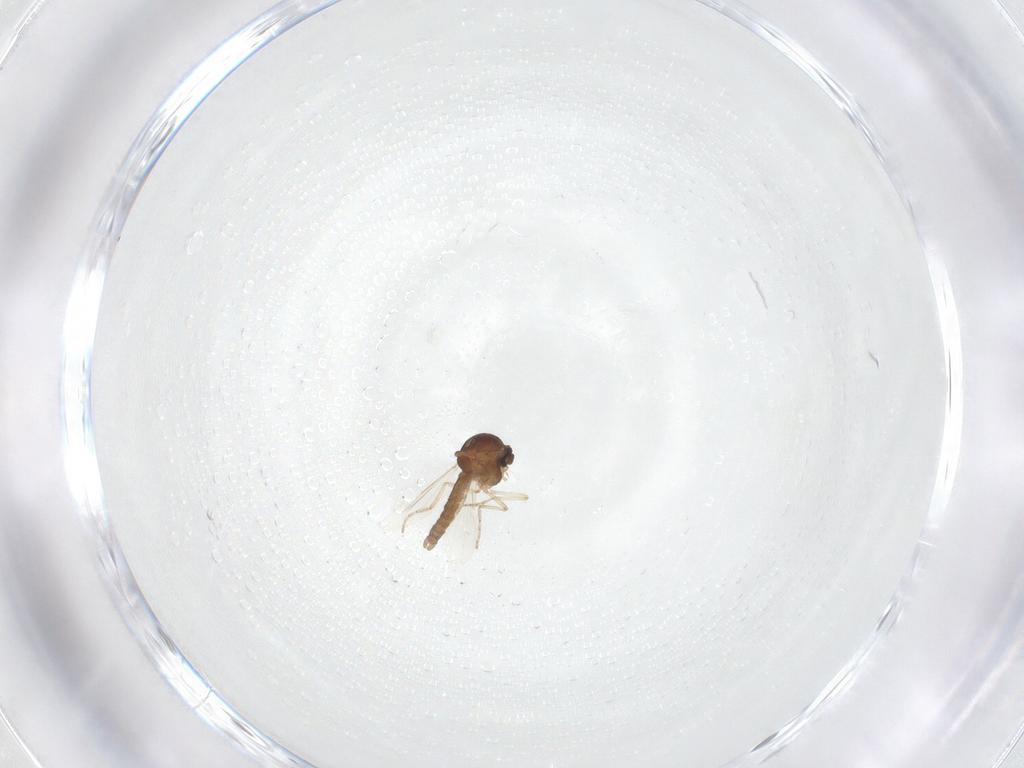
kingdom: Animalia
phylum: Arthropoda
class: Insecta
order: Diptera
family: Ceratopogonidae
